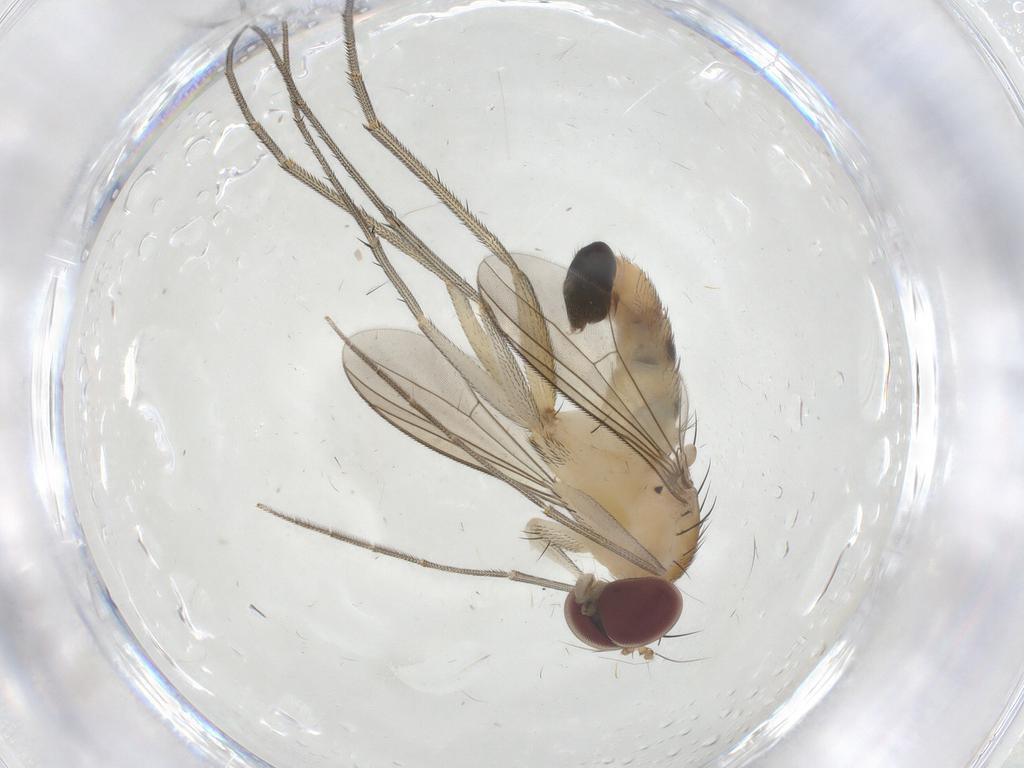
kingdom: Animalia
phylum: Arthropoda
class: Insecta
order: Diptera
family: Dolichopodidae
